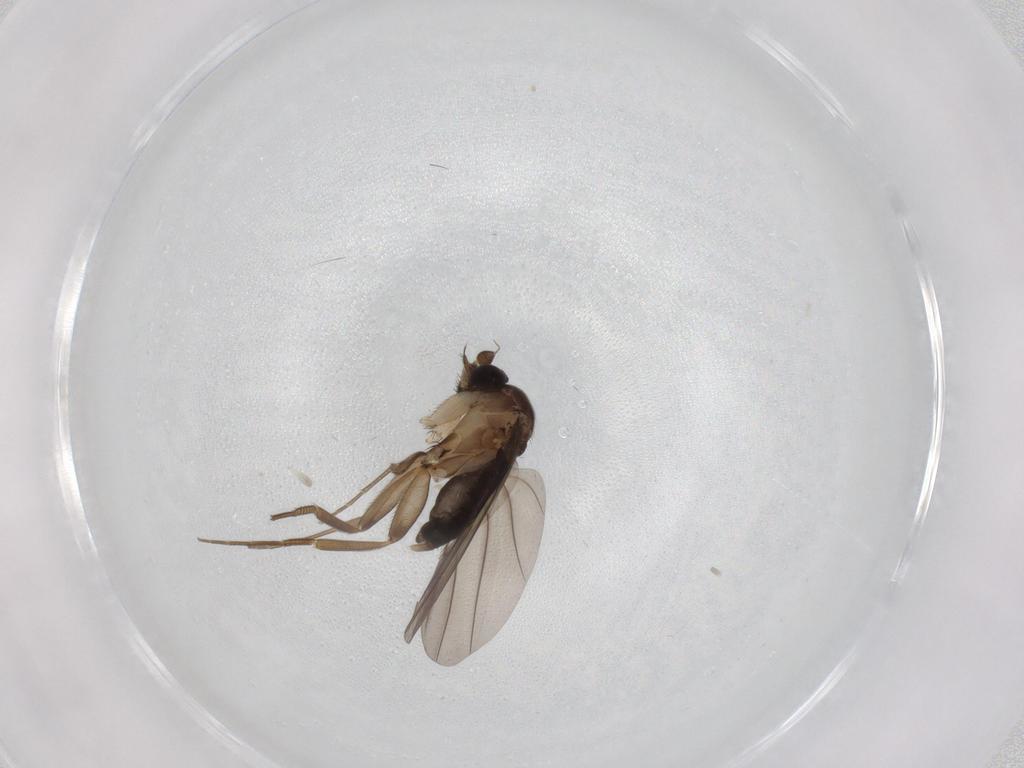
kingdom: Animalia
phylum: Arthropoda
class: Insecta
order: Diptera
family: Phoridae
